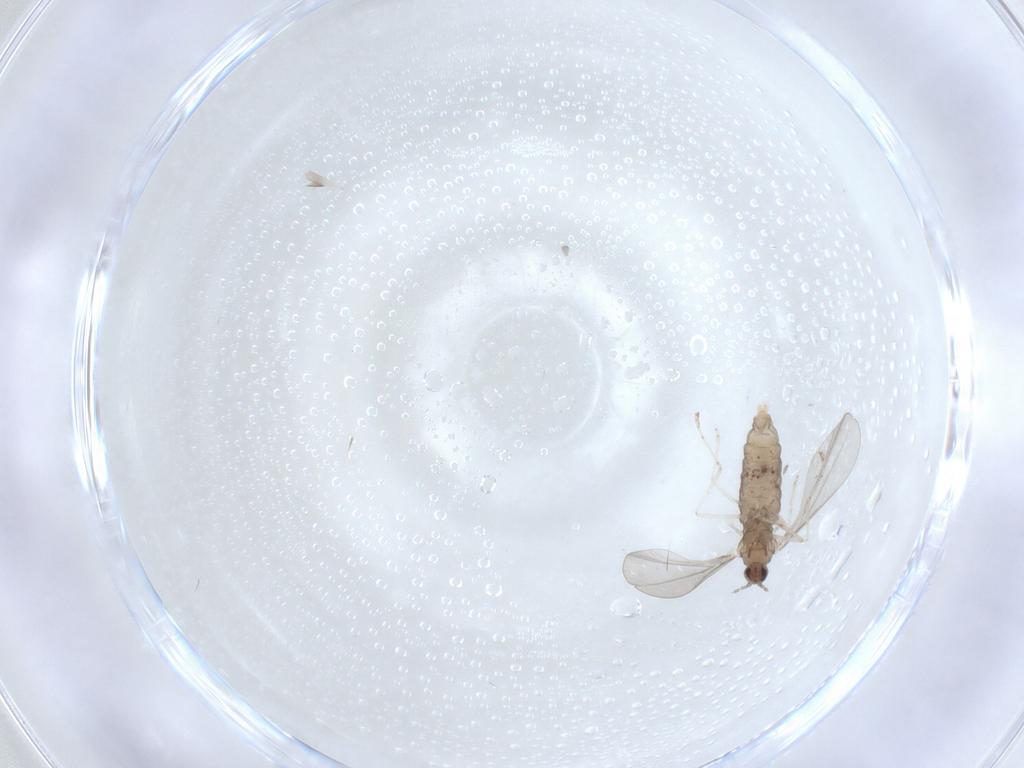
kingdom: Animalia
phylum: Arthropoda
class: Insecta
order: Diptera
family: Cecidomyiidae
